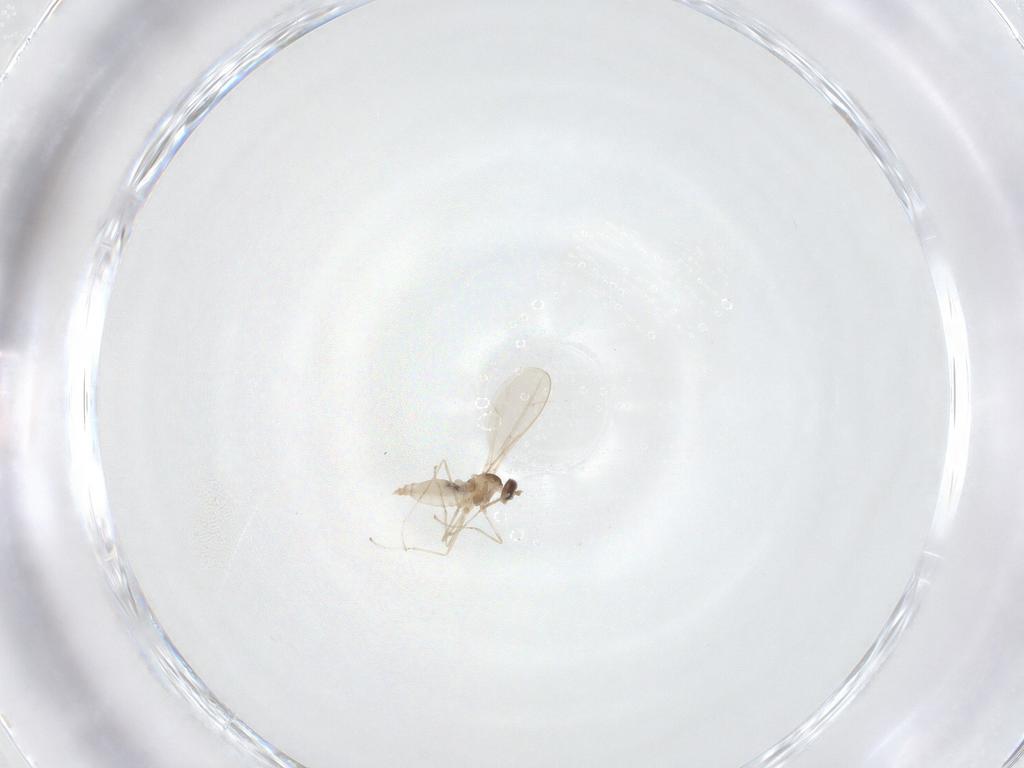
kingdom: Animalia
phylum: Arthropoda
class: Insecta
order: Diptera
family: Cecidomyiidae
